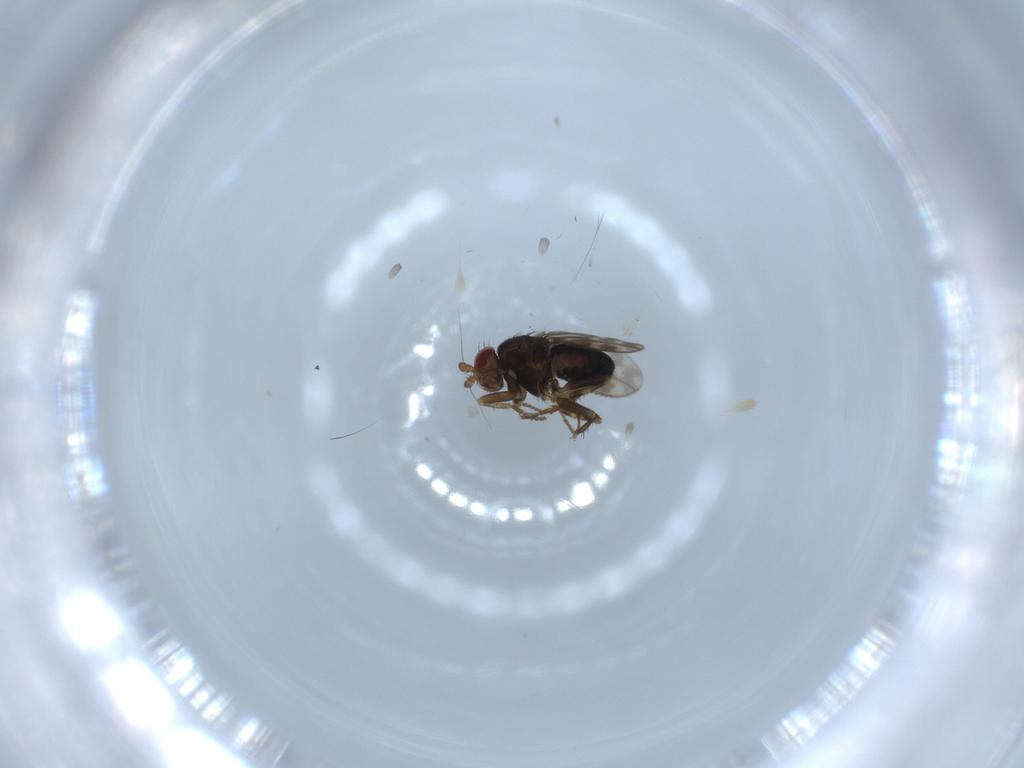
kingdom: Animalia
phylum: Arthropoda
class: Insecta
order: Diptera
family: Sphaeroceridae
